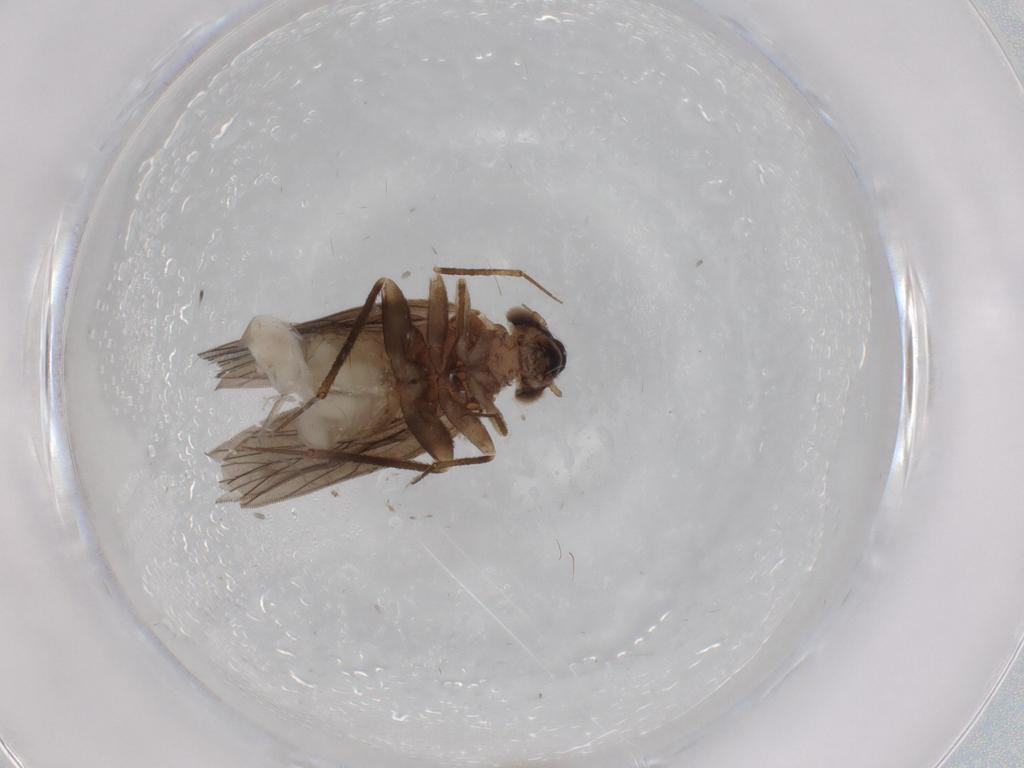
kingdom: Animalia
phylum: Arthropoda
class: Insecta
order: Psocodea
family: Lepidopsocidae
